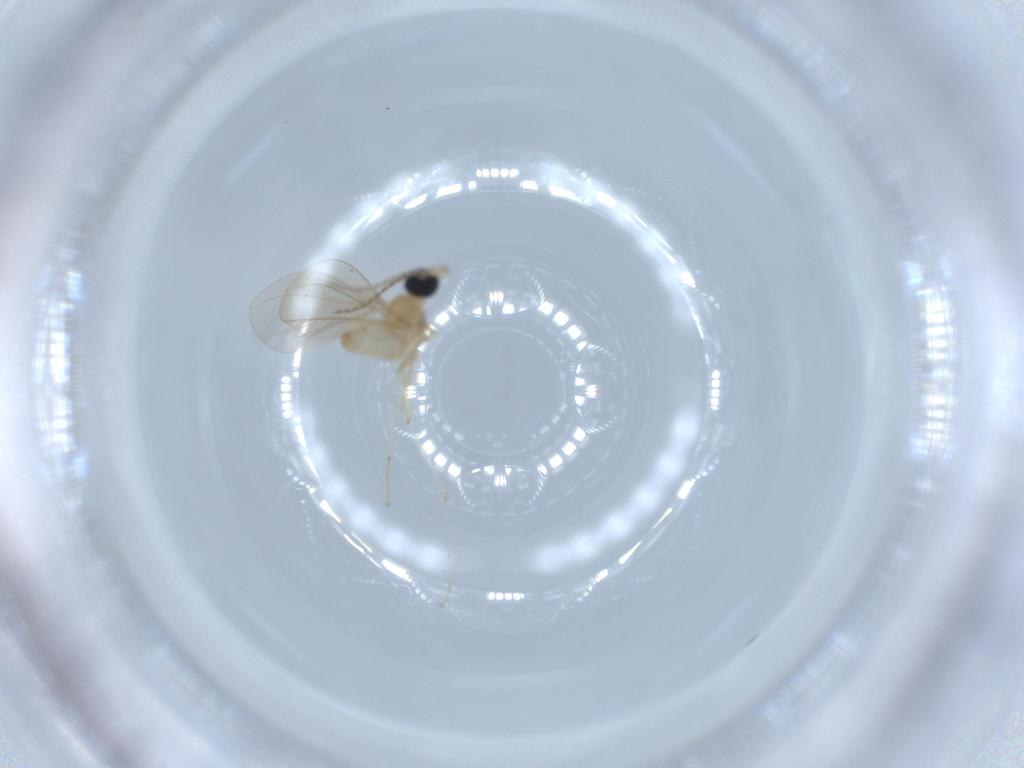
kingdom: Animalia
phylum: Arthropoda
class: Insecta
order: Diptera
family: Cecidomyiidae
